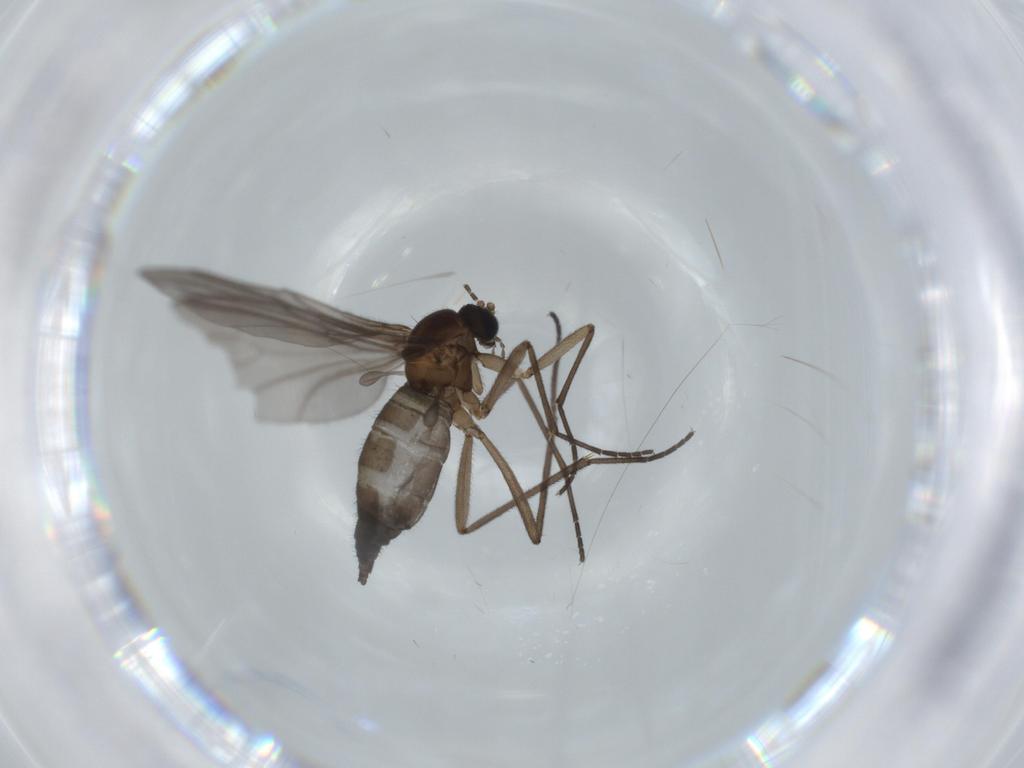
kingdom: Animalia
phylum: Arthropoda
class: Insecta
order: Diptera
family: Sciaridae
